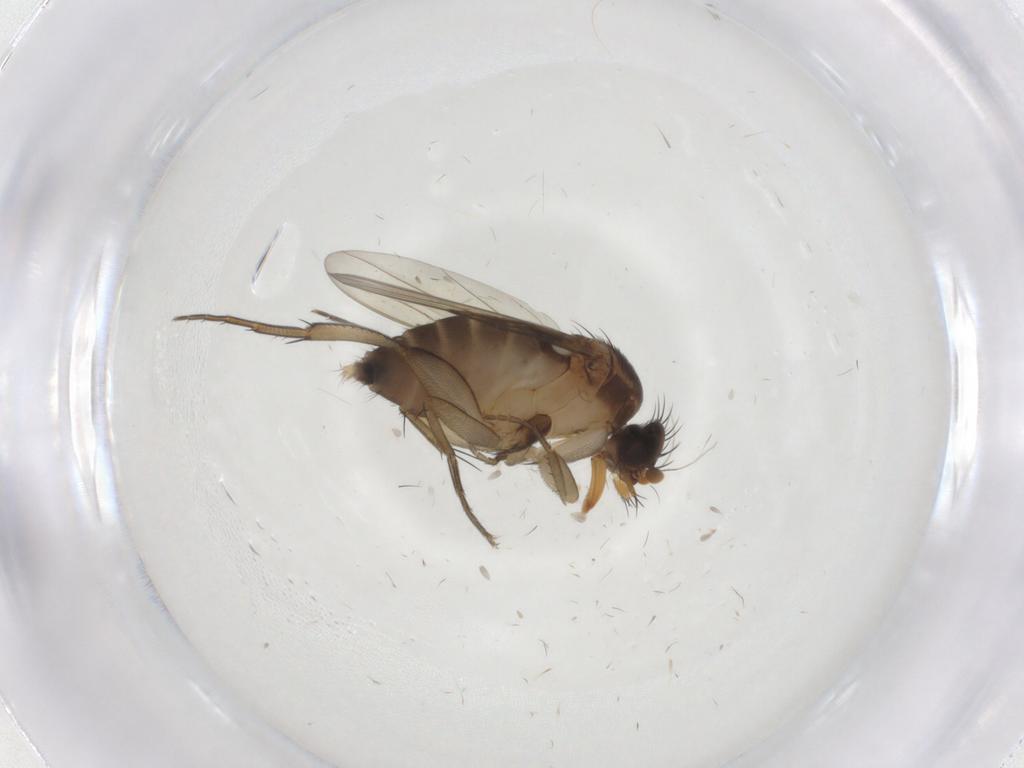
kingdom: Animalia
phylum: Arthropoda
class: Insecta
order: Diptera
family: Phoridae
